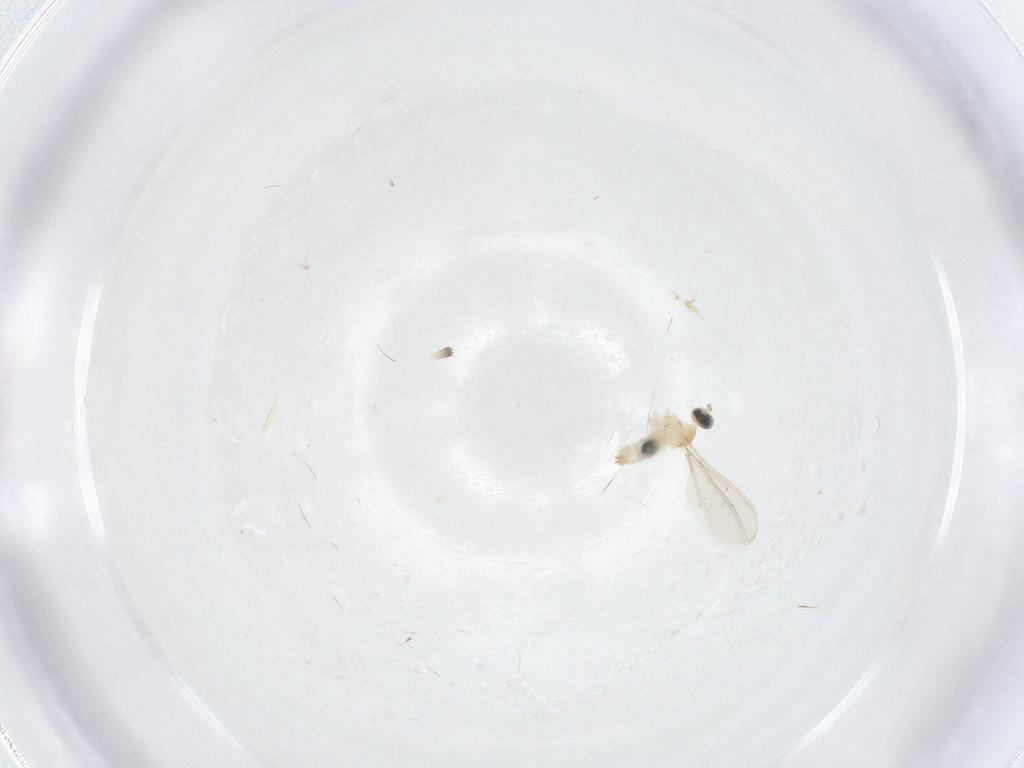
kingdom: Animalia
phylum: Arthropoda
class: Insecta
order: Diptera
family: Cecidomyiidae
